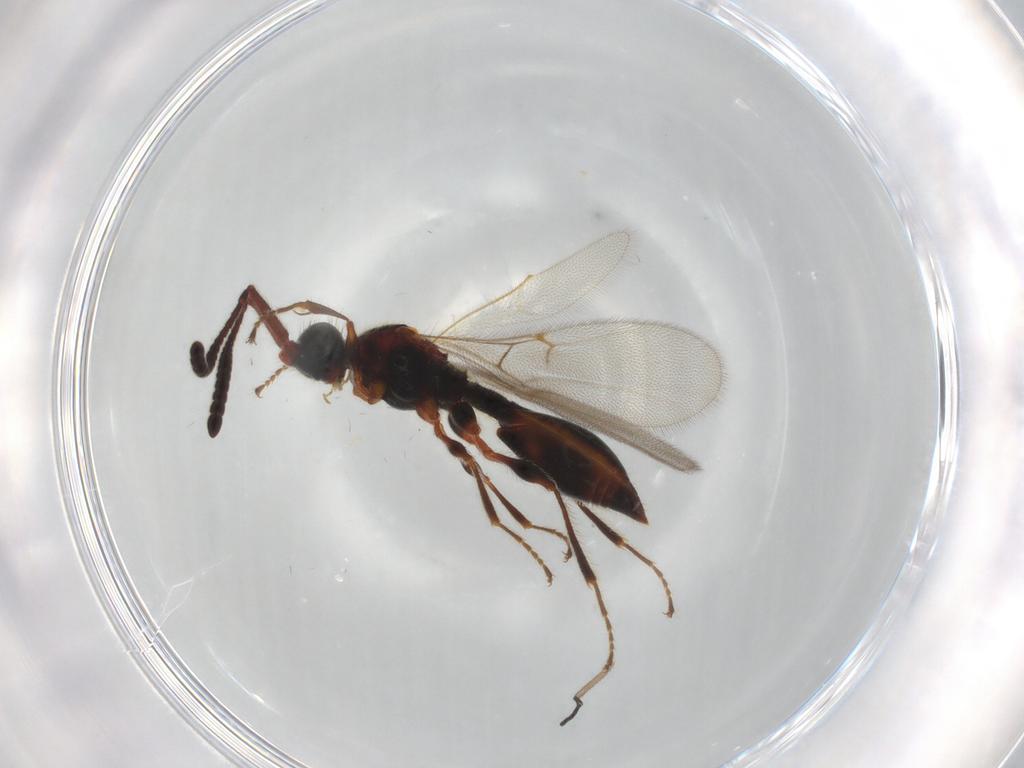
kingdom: Animalia
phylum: Arthropoda
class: Insecta
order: Hymenoptera
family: Diapriidae
